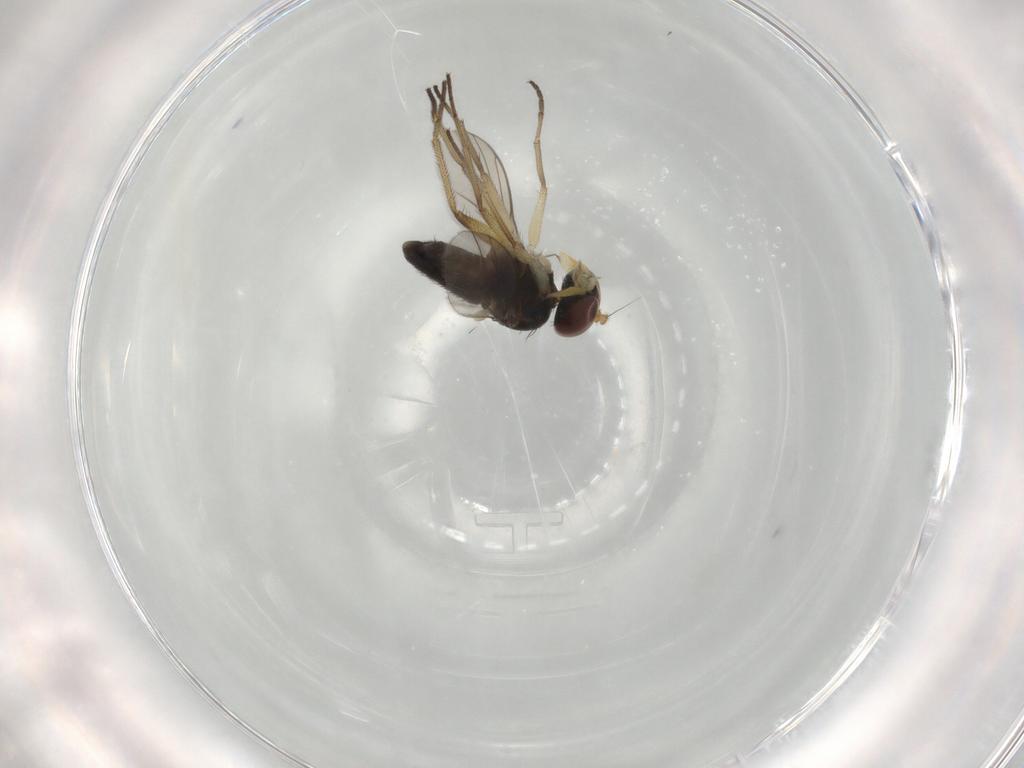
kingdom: Animalia
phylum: Arthropoda
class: Insecta
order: Diptera
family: Dolichopodidae
